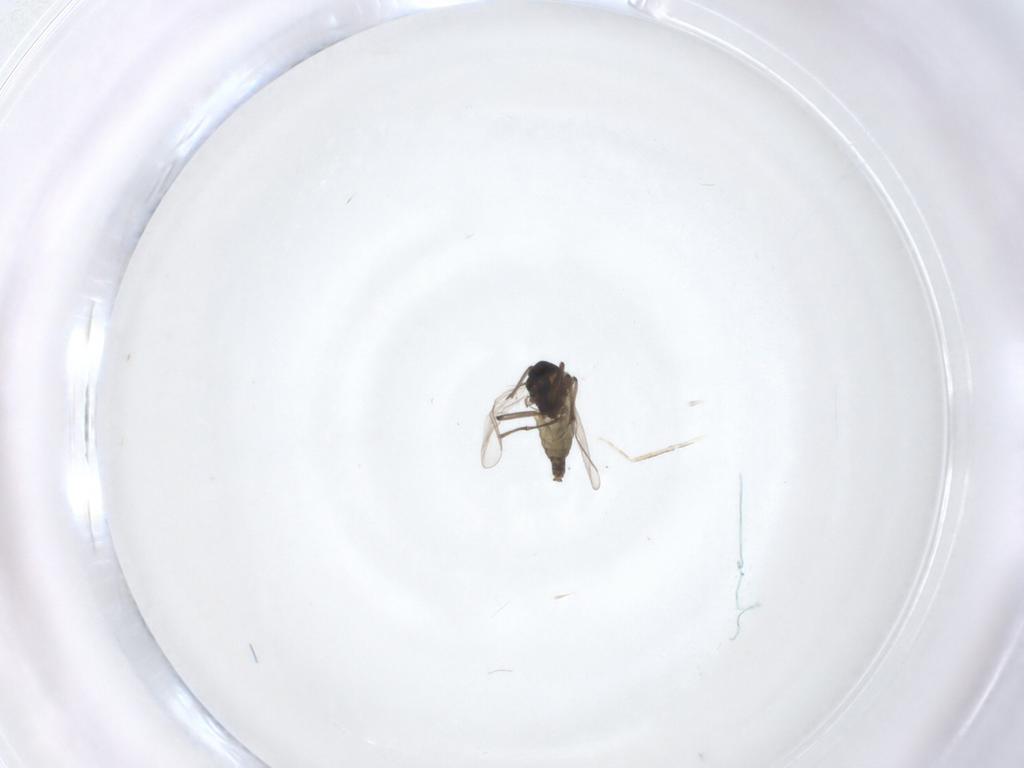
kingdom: Animalia
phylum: Arthropoda
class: Insecta
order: Diptera
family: Chironomidae
